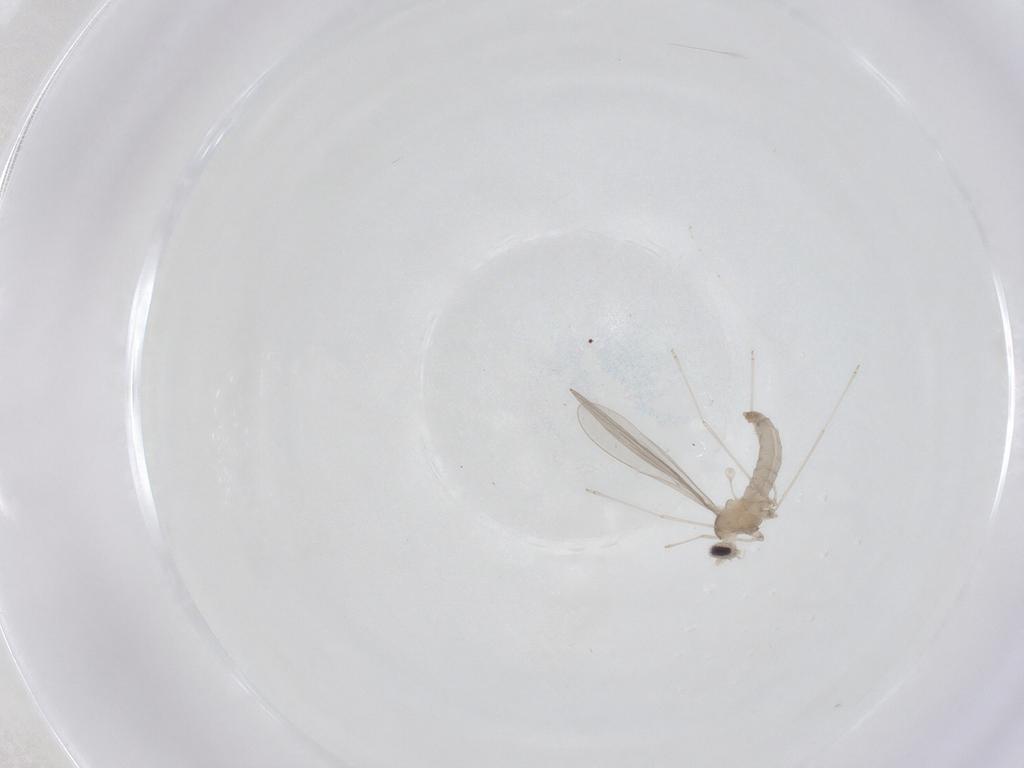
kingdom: Animalia
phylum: Arthropoda
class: Insecta
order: Diptera
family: Cecidomyiidae
